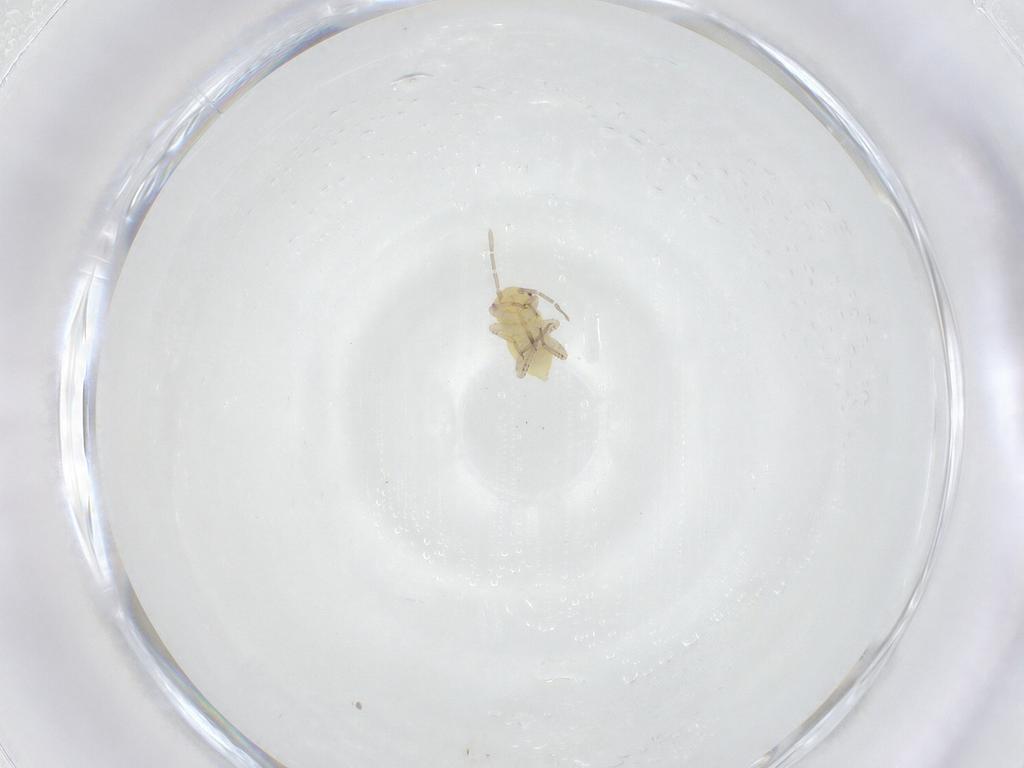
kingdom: Animalia
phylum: Arthropoda
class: Insecta
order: Hemiptera
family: Miridae
